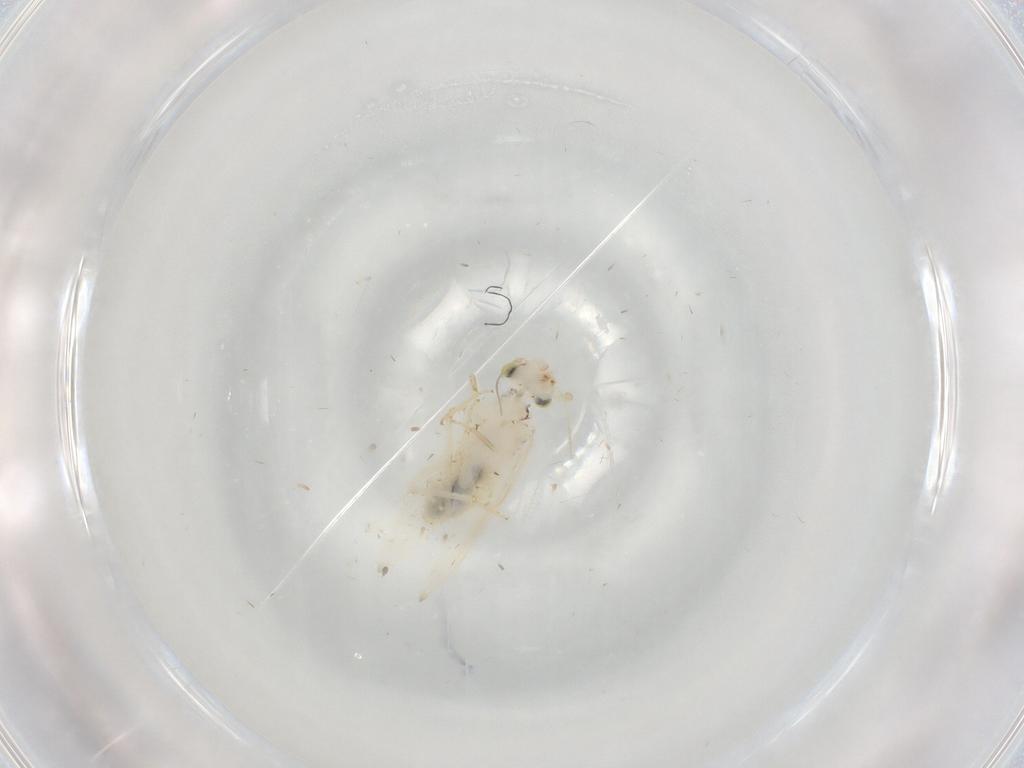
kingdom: Animalia
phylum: Arthropoda
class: Insecta
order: Psocodea
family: Lepidopsocidae
